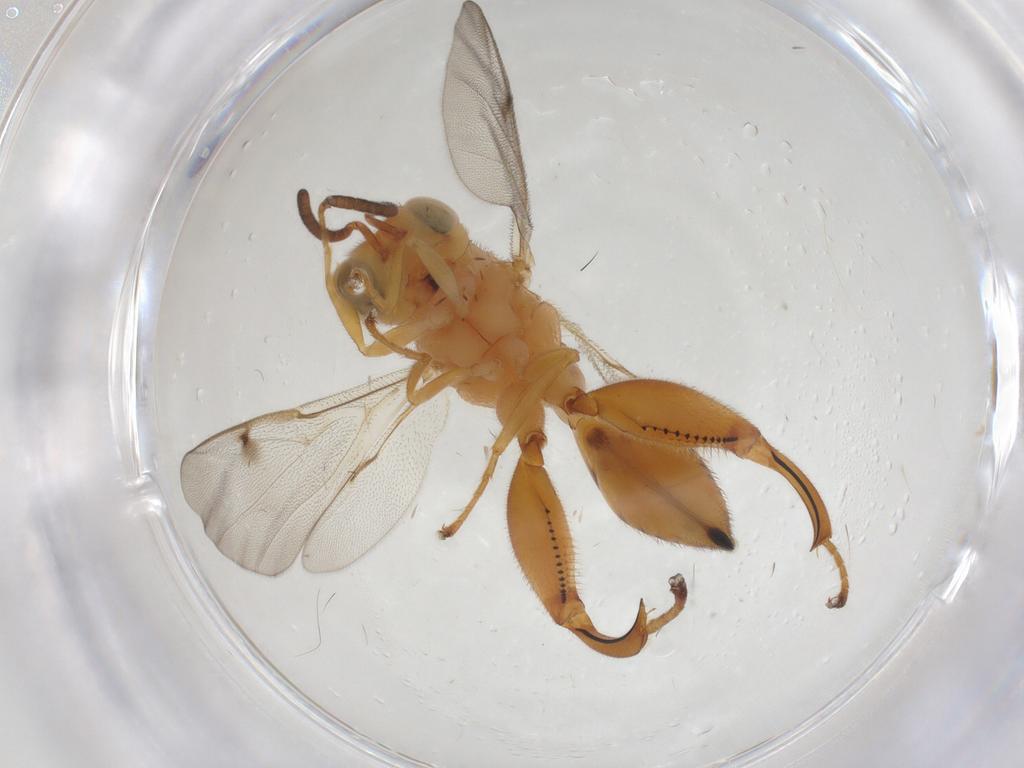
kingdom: Animalia
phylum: Arthropoda
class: Insecta
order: Hymenoptera
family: Chalcididae
